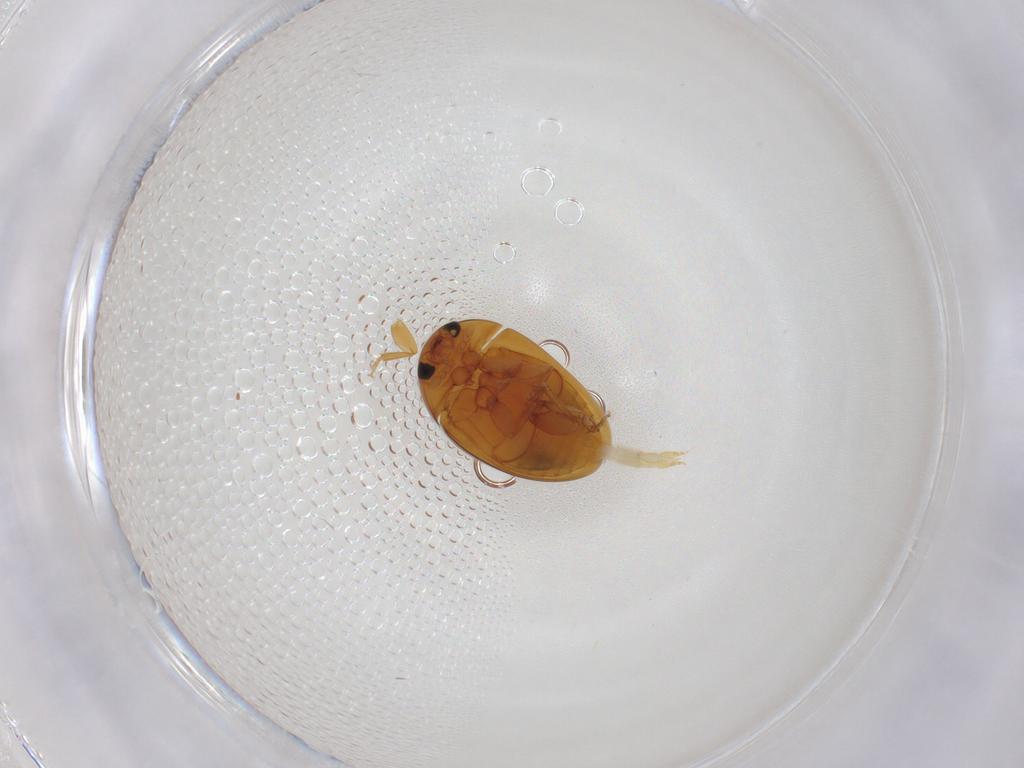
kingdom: Animalia
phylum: Arthropoda
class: Insecta
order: Coleoptera
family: Phalacridae
